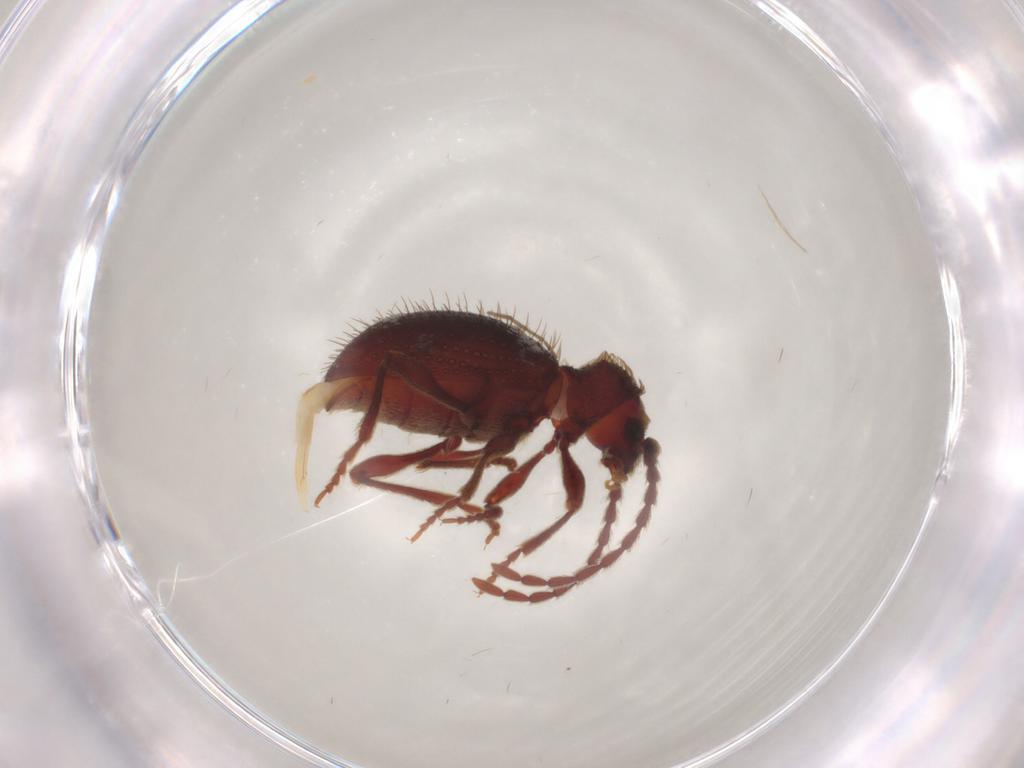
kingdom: Animalia
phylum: Arthropoda
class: Insecta
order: Coleoptera
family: Ptinidae
